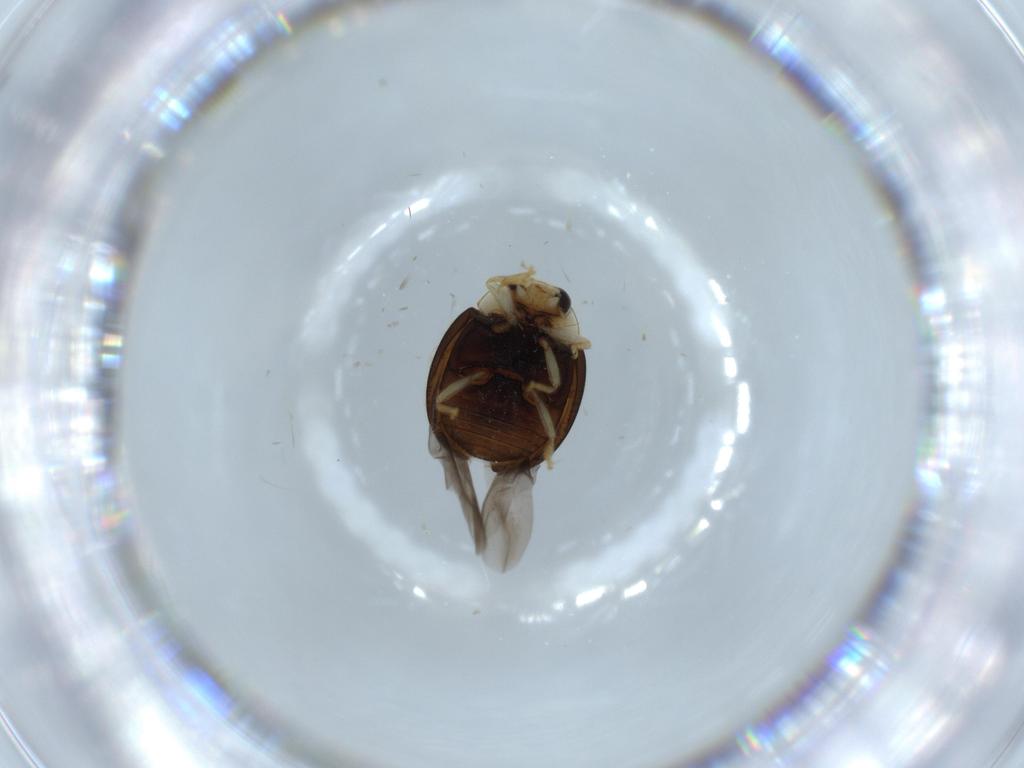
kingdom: Animalia
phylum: Arthropoda
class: Insecta
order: Coleoptera
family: Coccinellidae
